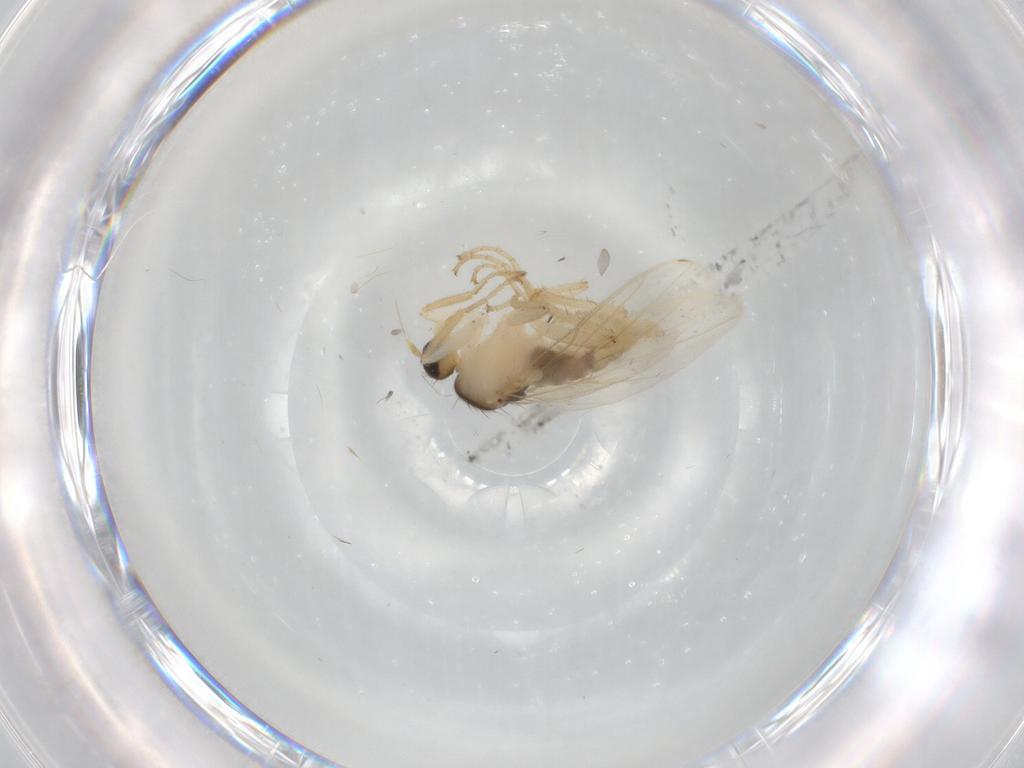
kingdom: Animalia
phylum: Arthropoda
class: Insecta
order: Diptera
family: Hybotidae
